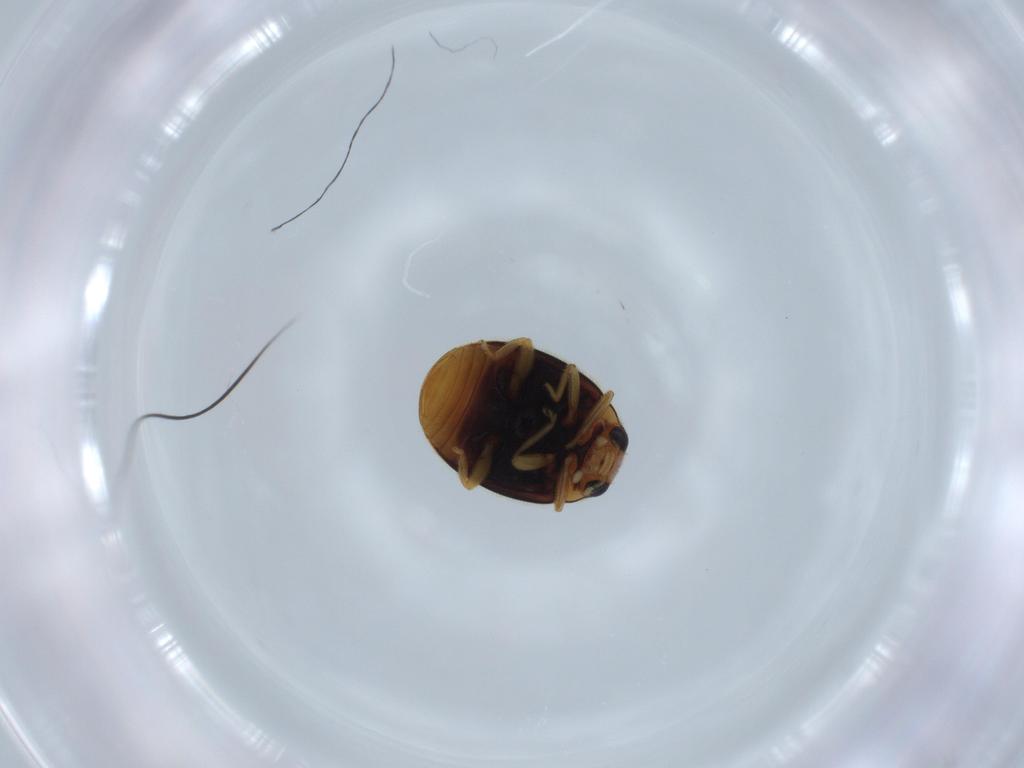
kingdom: Animalia
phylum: Arthropoda
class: Insecta
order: Coleoptera
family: Coccinellidae
